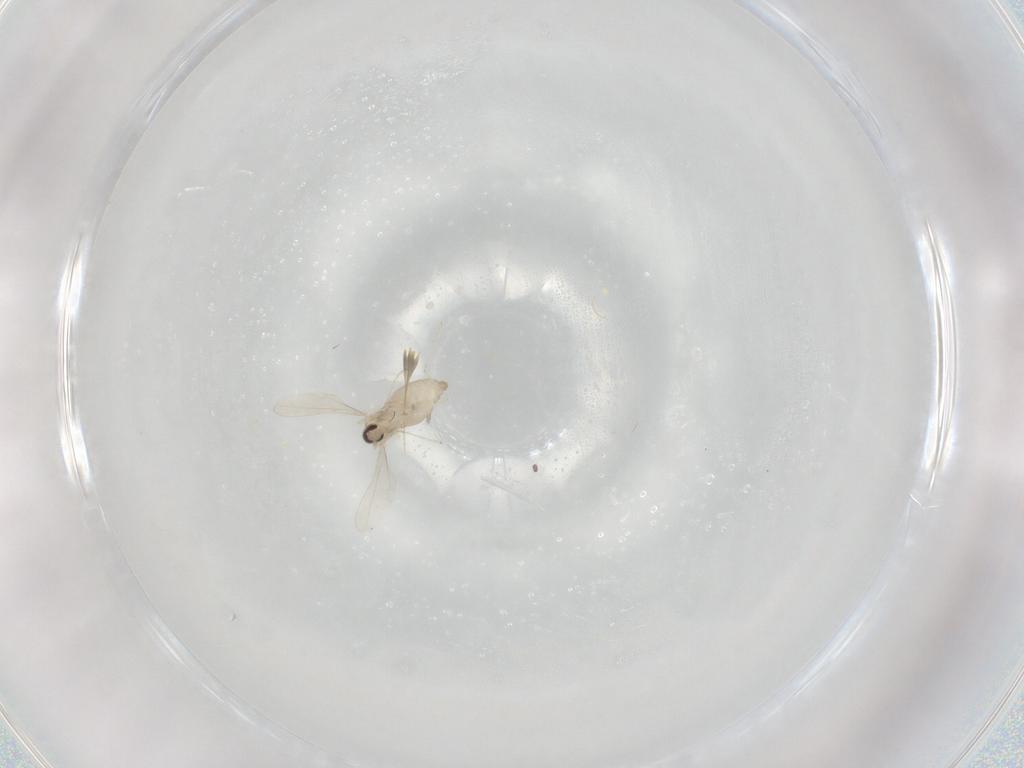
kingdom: Animalia
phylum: Arthropoda
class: Insecta
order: Diptera
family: Cecidomyiidae
